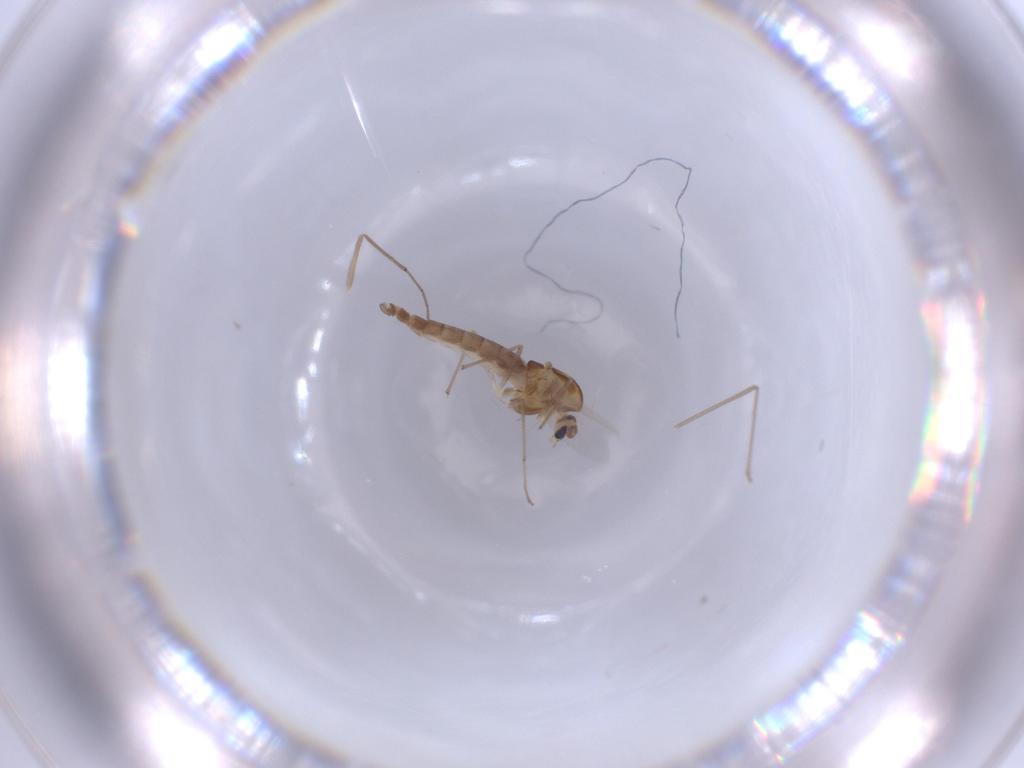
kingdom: Animalia
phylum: Arthropoda
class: Insecta
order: Diptera
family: Chironomidae
